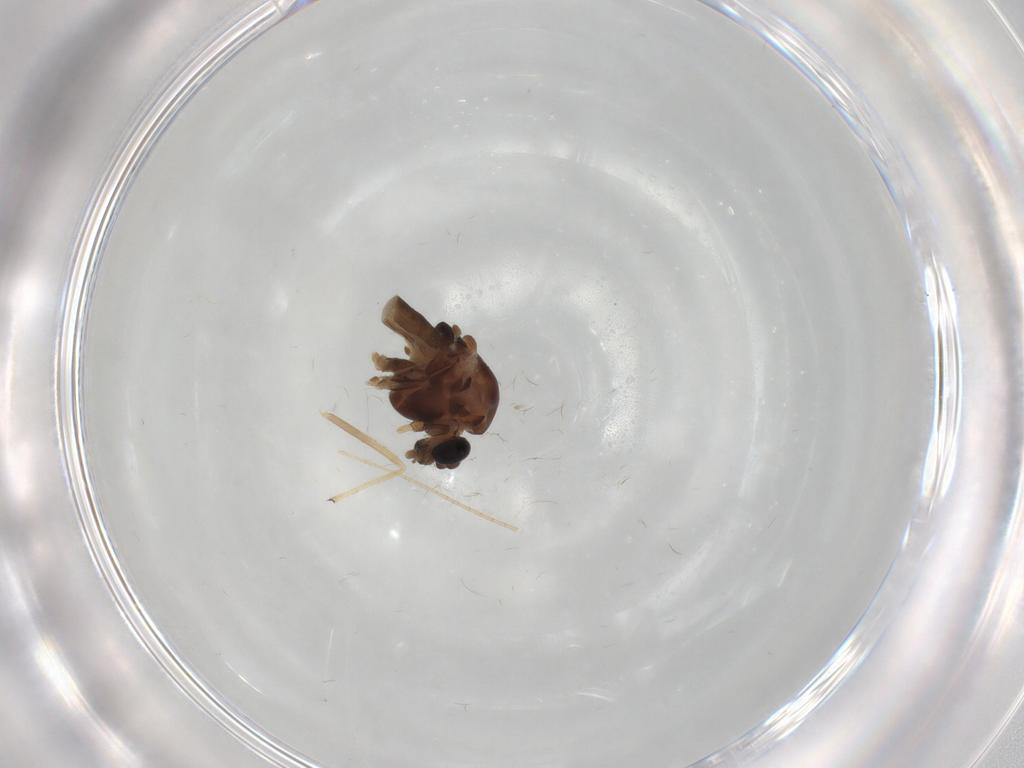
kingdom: Animalia
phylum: Arthropoda
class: Insecta
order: Diptera
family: Chironomidae
